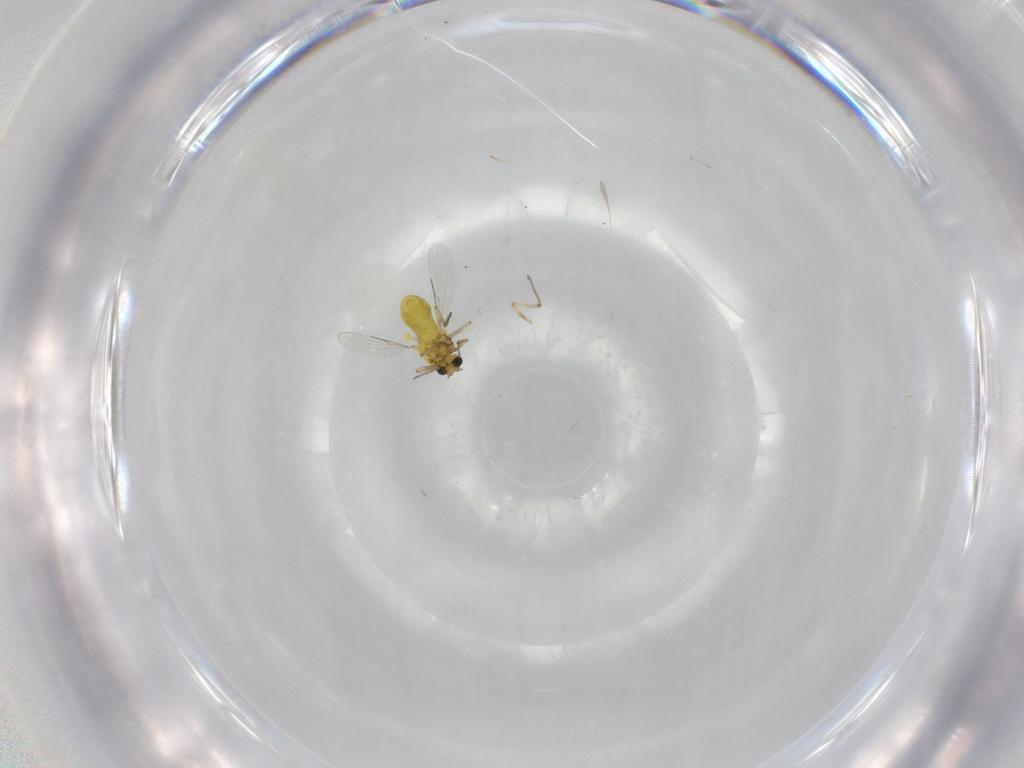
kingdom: Animalia
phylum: Arthropoda
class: Insecta
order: Diptera
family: Ceratopogonidae
